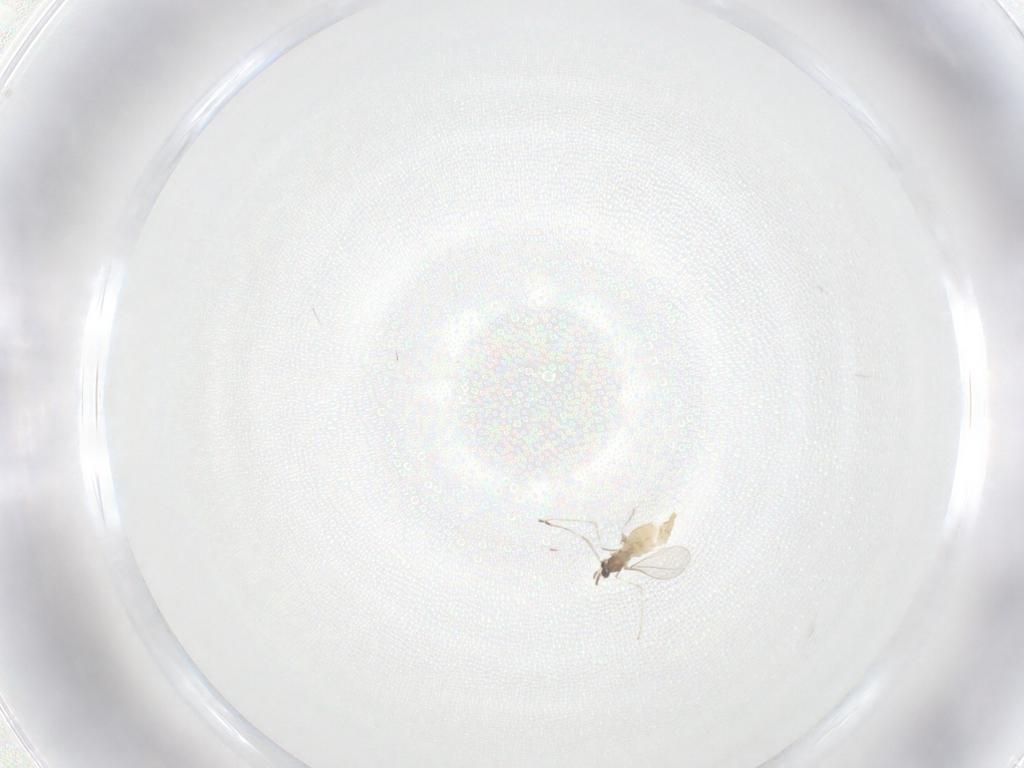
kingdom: Animalia
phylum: Arthropoda
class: Insecta
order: Diptera
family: Cecidomyiidae
